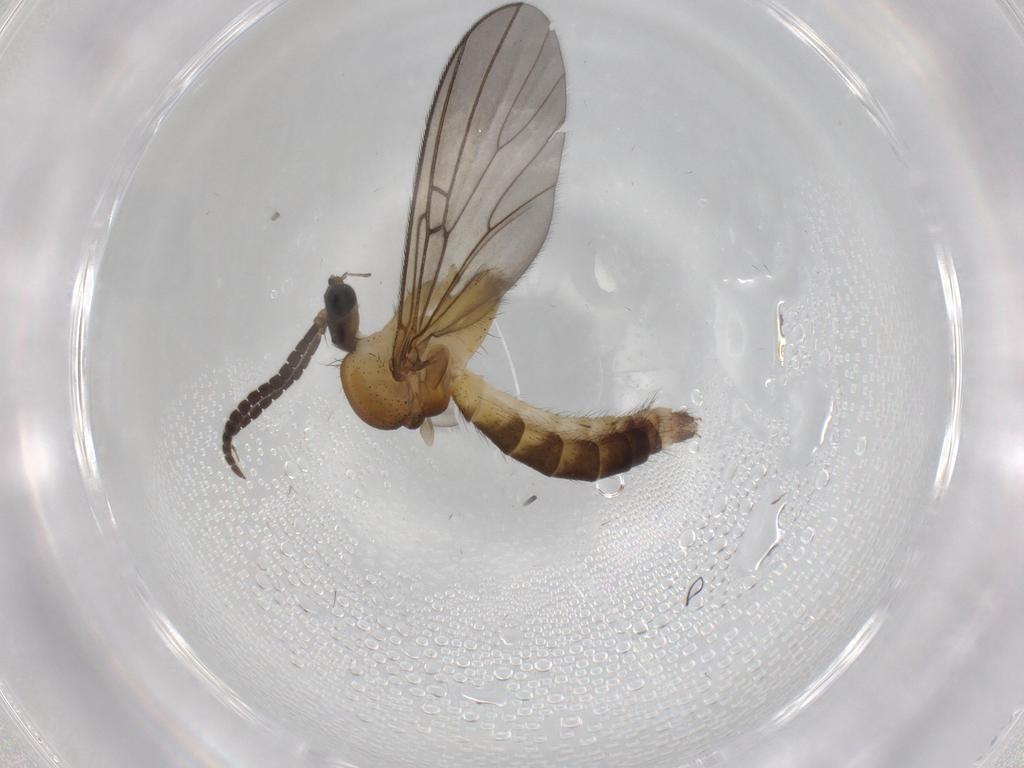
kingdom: Animalia
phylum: Arthropoda
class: Insecta
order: Diptera
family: Mycetophilidae
